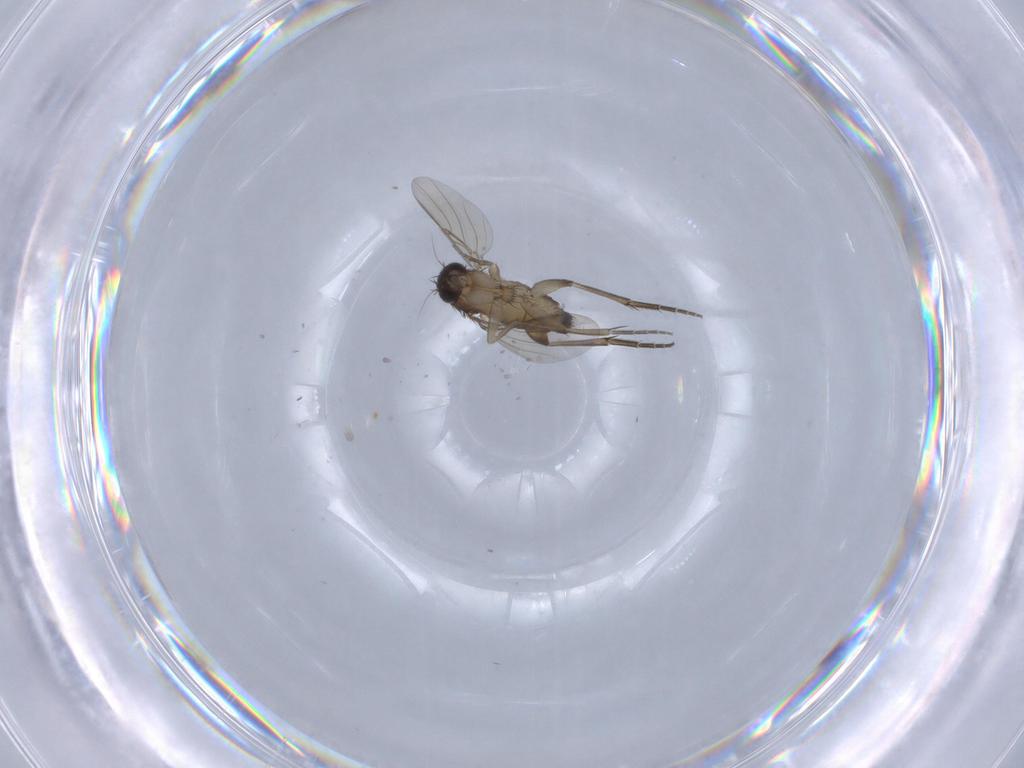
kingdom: Animalia
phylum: Arthropoda
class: Insecta
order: Diptera
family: Phoridae
